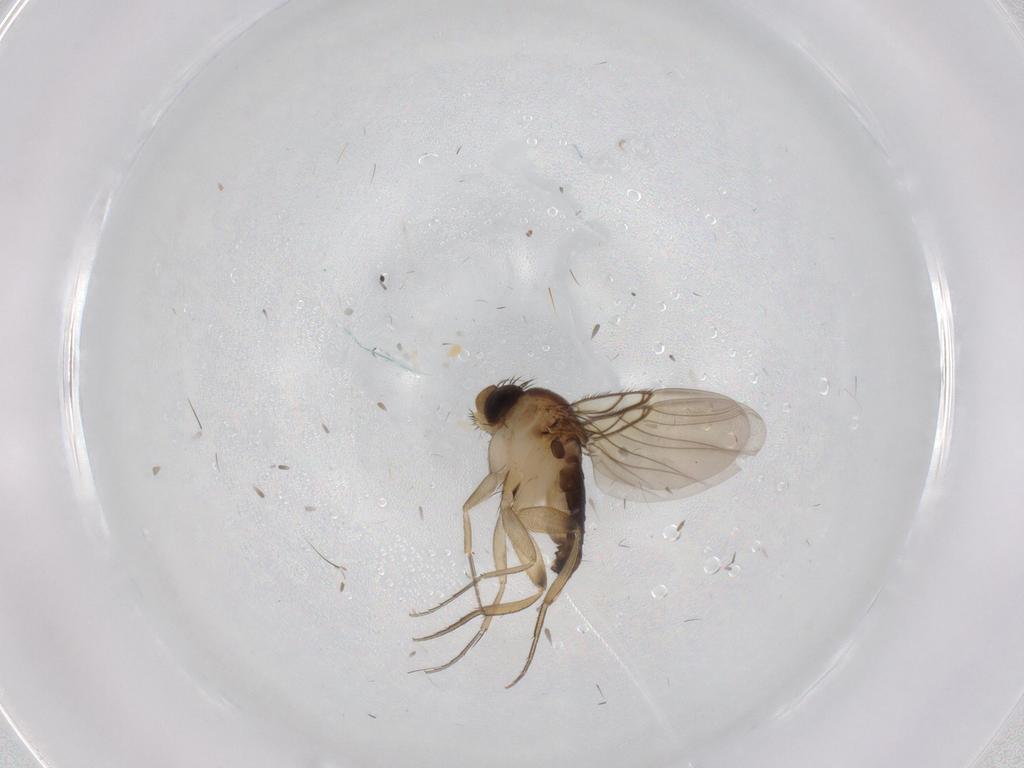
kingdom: Animalia
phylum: Arthropoda
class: Insecta
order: Diptera
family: Phoridae
